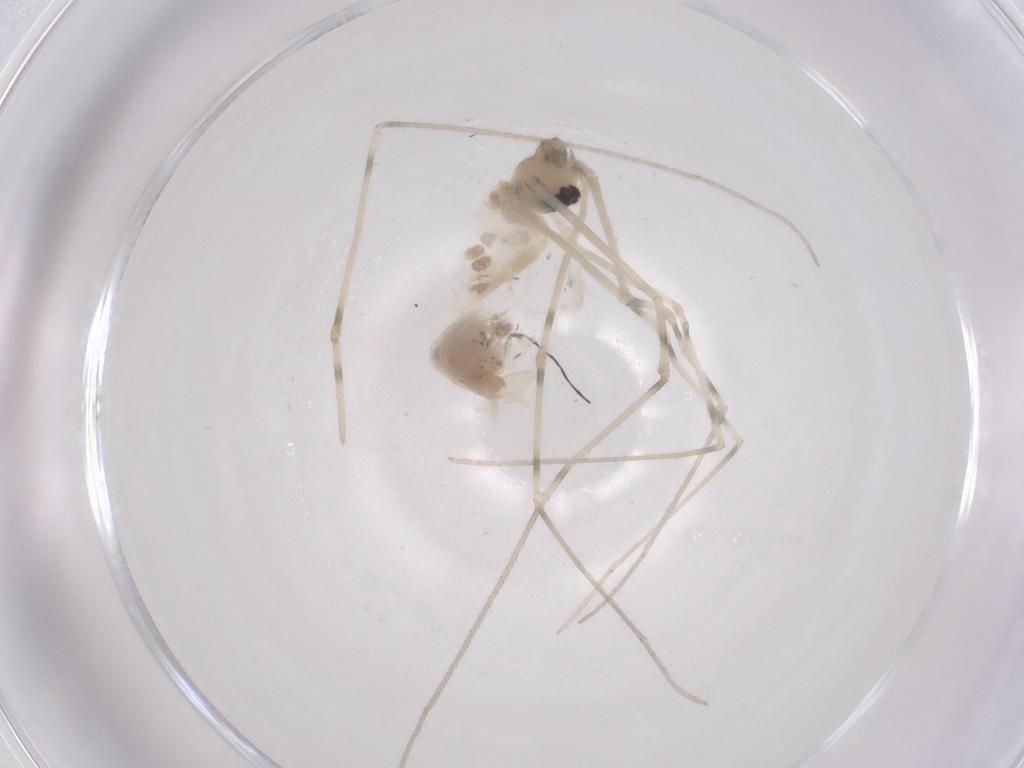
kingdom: Animalia
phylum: Arthropoda
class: Arachnida
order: Araneae
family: Pholcidae
